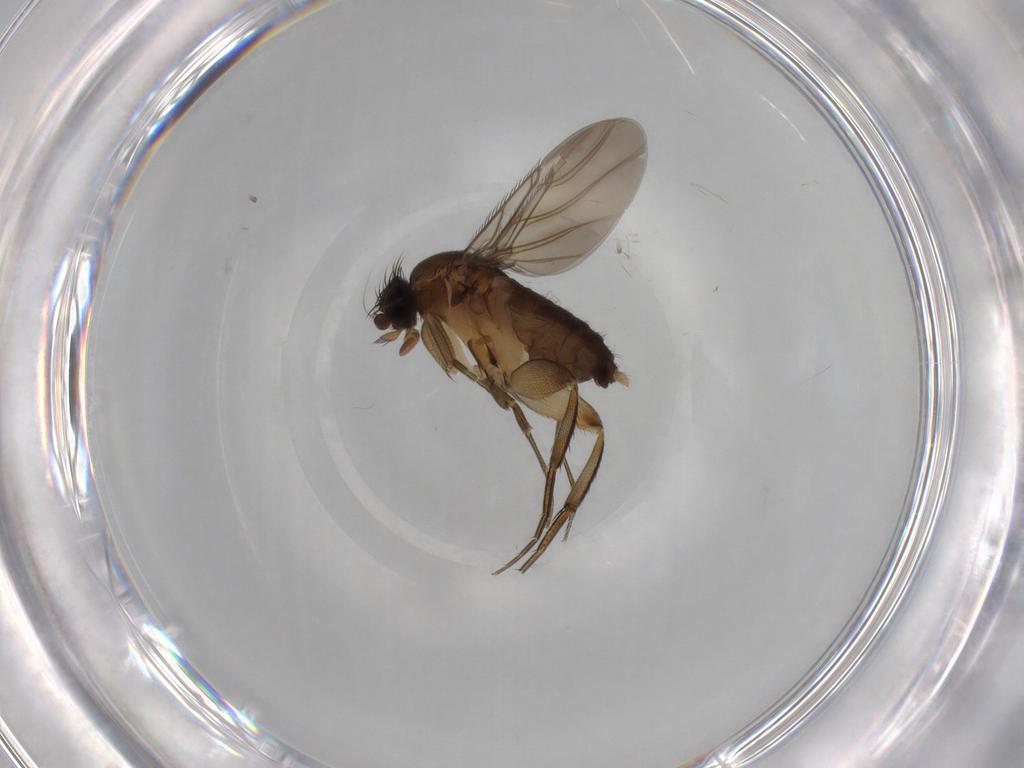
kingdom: Animalia
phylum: Arthropoda
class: Insecta
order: Diptera
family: Phoridae
